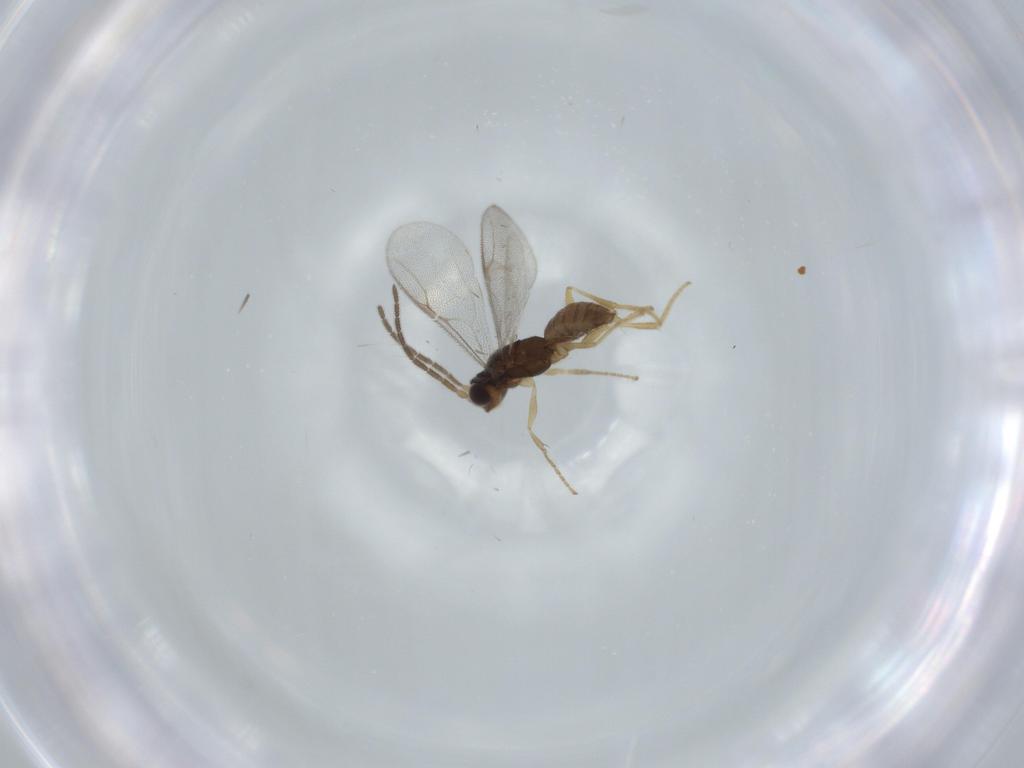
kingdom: Animalia
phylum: Arthropoda
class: Insecta
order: Hymenoptera
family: Dryinidae
